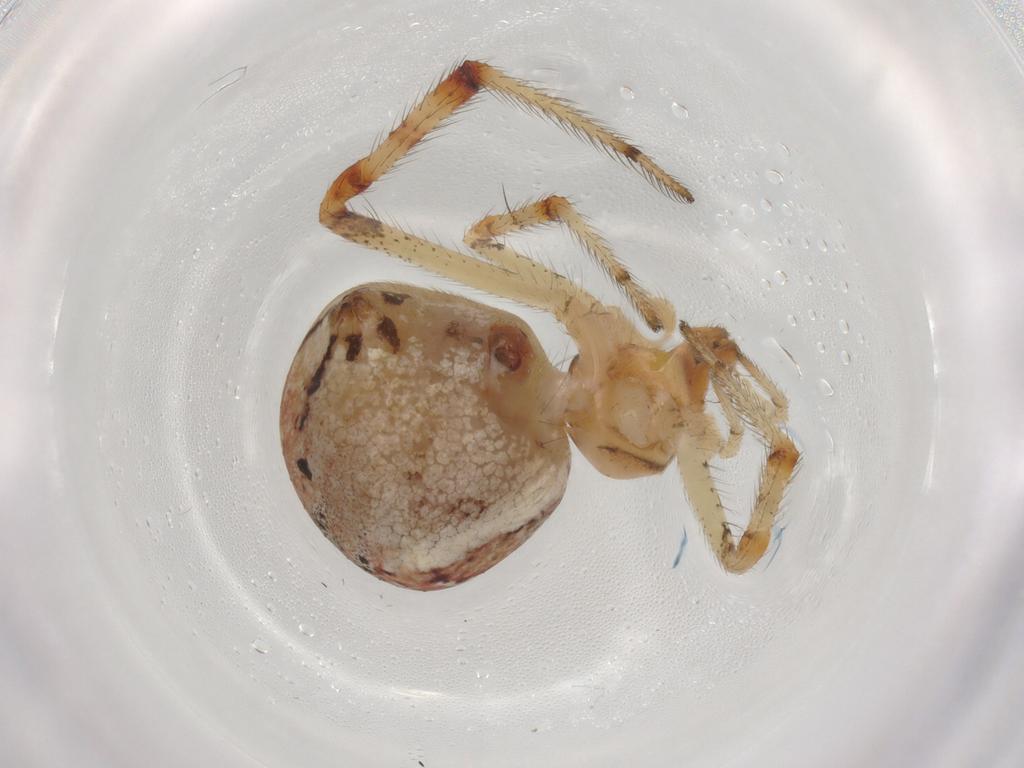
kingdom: Animalia
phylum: Arthropoda
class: Arachnida
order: Araneae
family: Theridiidae
